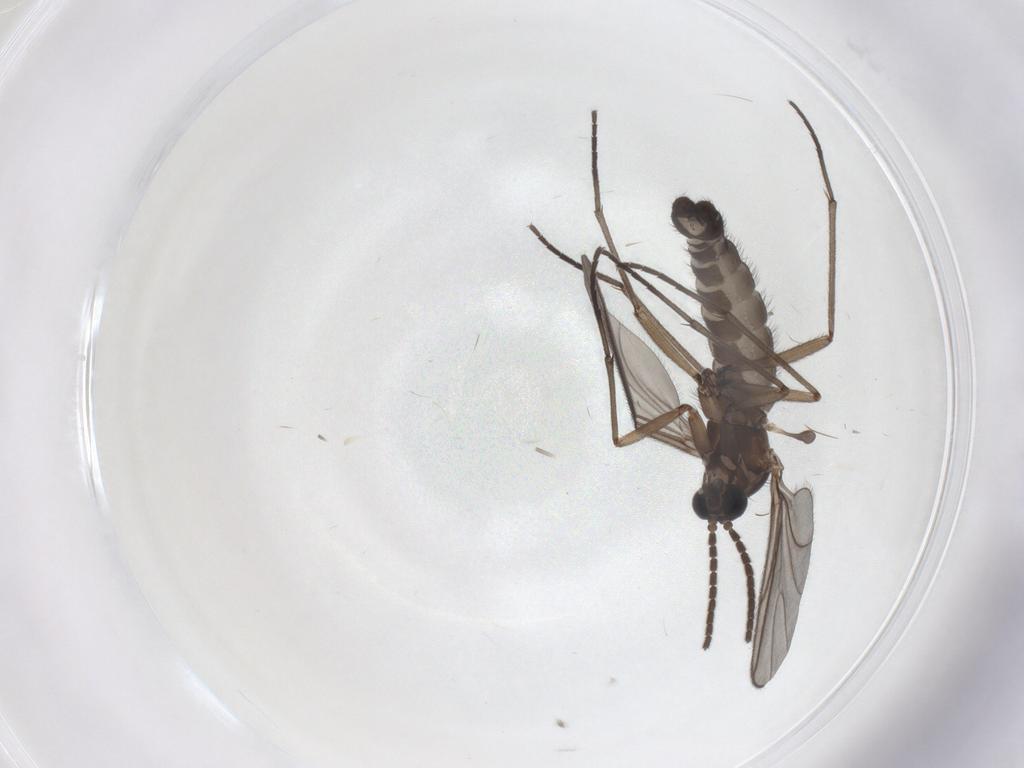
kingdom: Animalia
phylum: Arthropoda
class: Insecta
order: Diptera
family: Sciaridae
